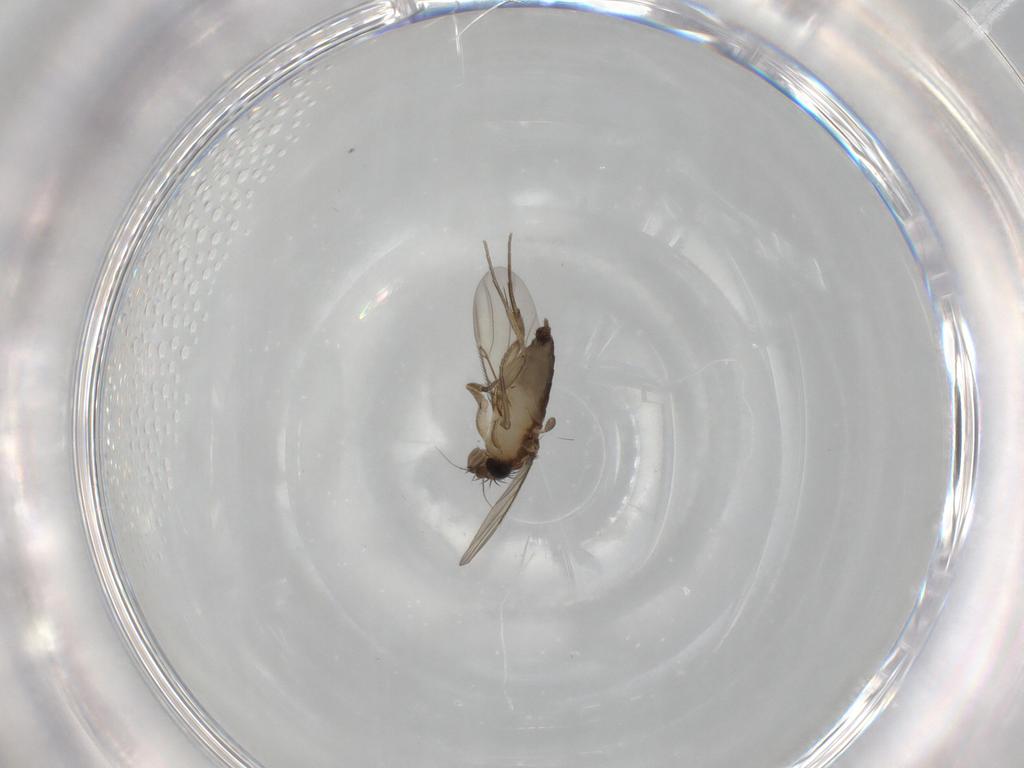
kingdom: Animalia
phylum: Arthropoda
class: Insecta
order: Diptera
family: Phoridae
